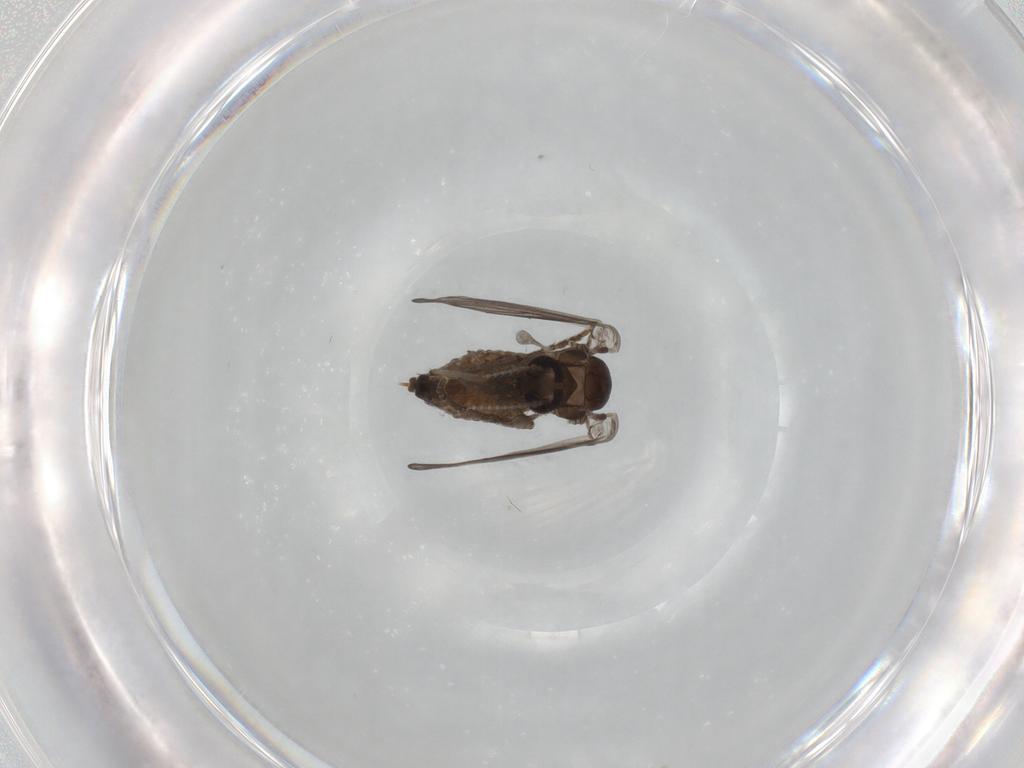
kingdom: Animalia
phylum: Arthropoda
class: Insecta
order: Diptera
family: Psychodidae
